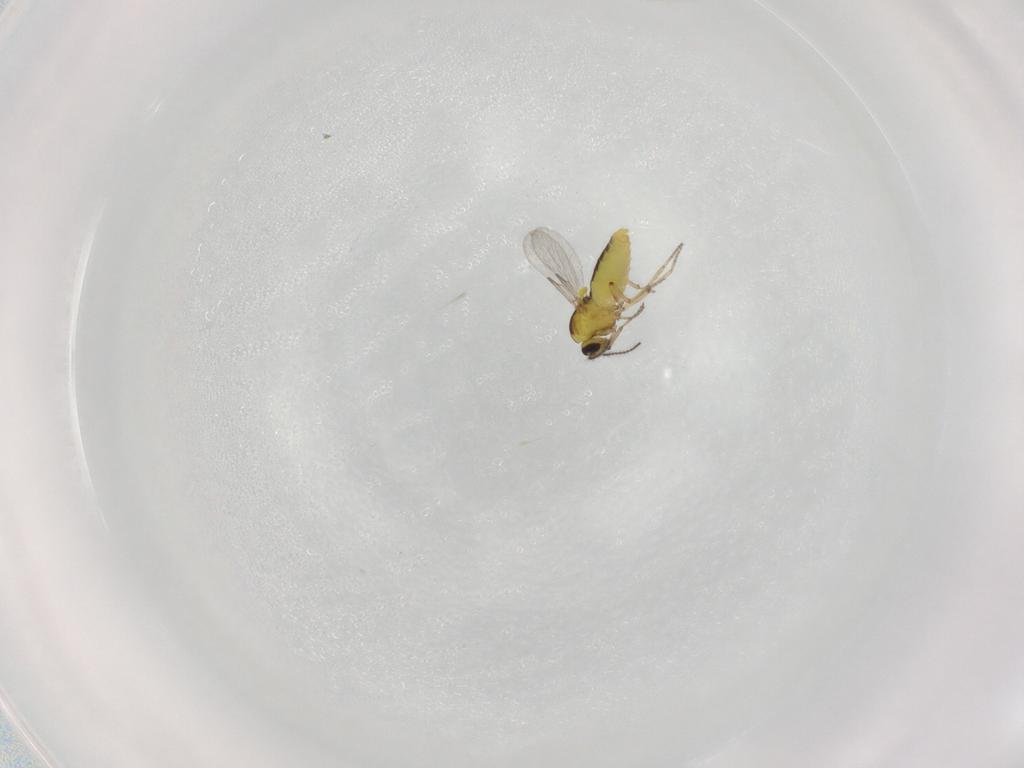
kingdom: Animalia
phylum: Arthropoda
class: Insecta
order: Diptera
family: Ceratopogonidae
